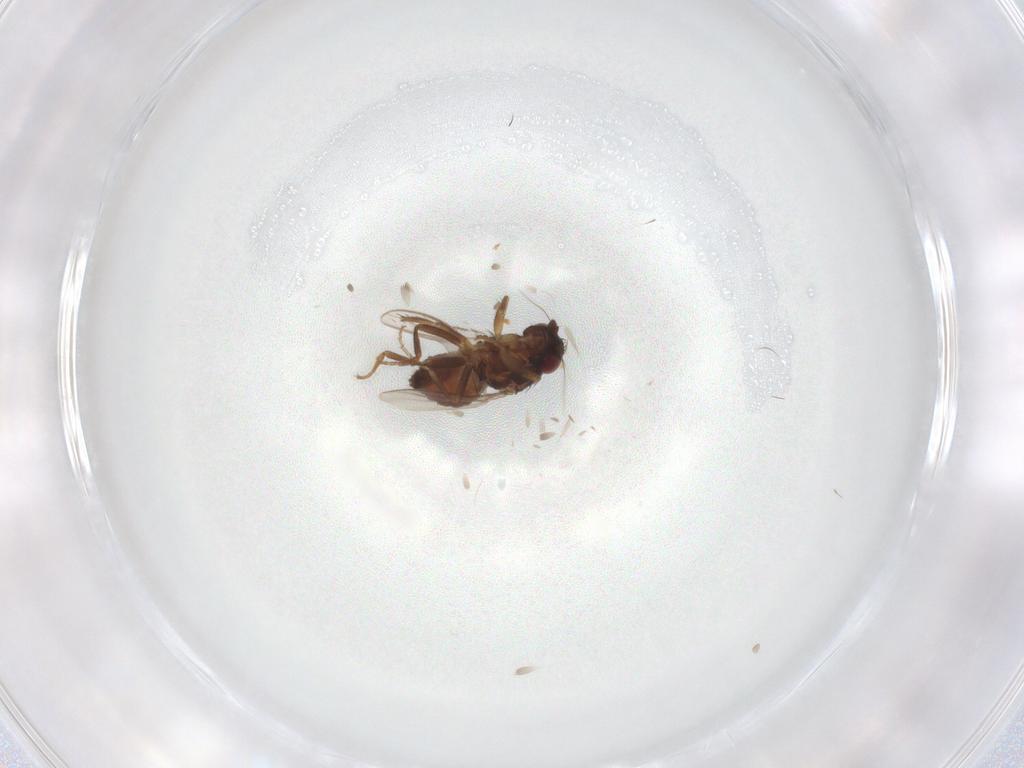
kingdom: Animalia
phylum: Arthropoda
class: Insecta
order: Diptera
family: Sphaeroceridae
